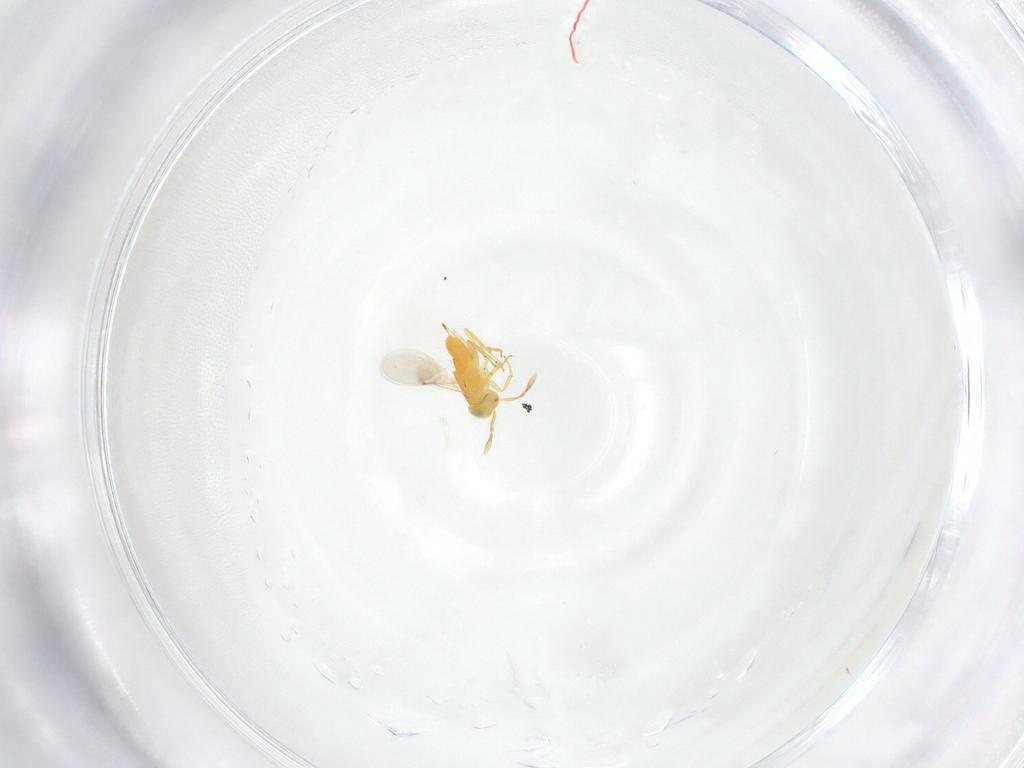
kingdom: Animalia
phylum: Arthropoda
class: Insecta
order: Hymenoptera
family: Encyrtidae
